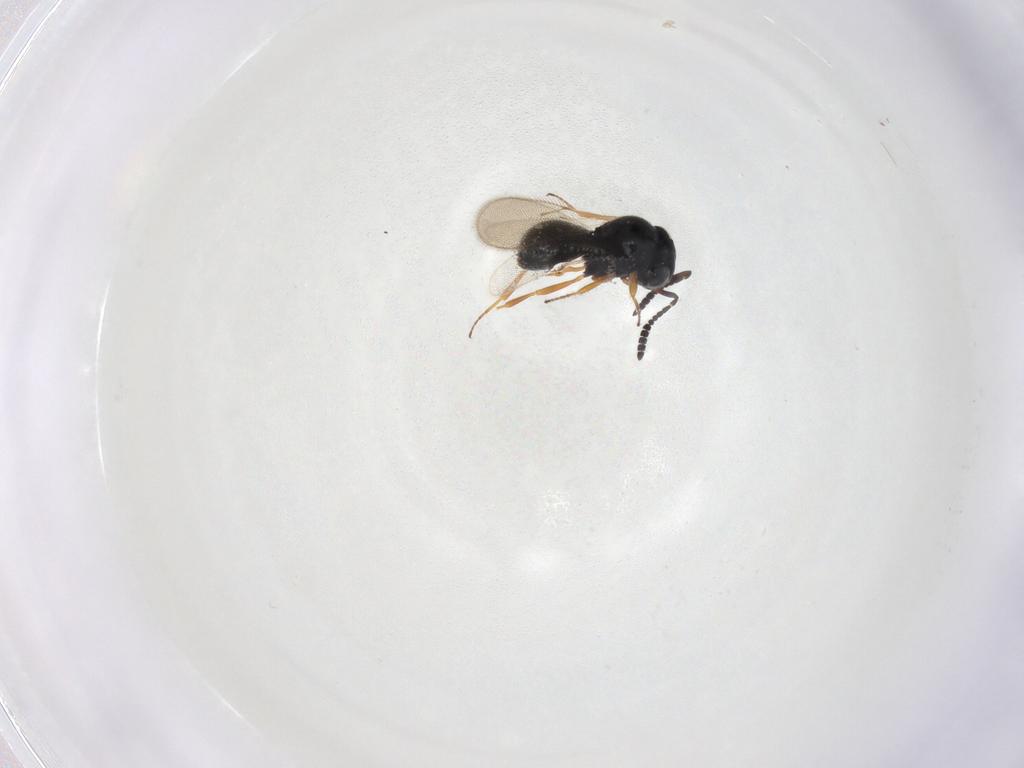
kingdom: Animalia
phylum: Arthropoda
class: Insecta
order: Hymenoptera
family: Scelionidae
